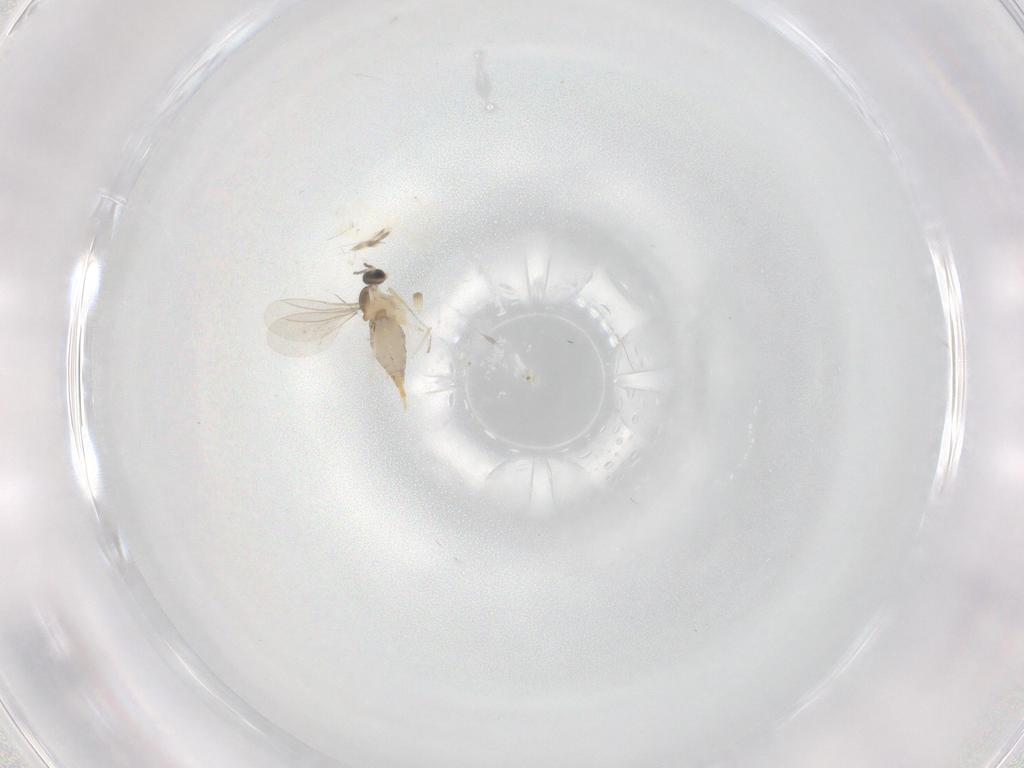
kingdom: Animalia
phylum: Arthropoda
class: Insecta
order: Diptera
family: Cecidomyiidae
